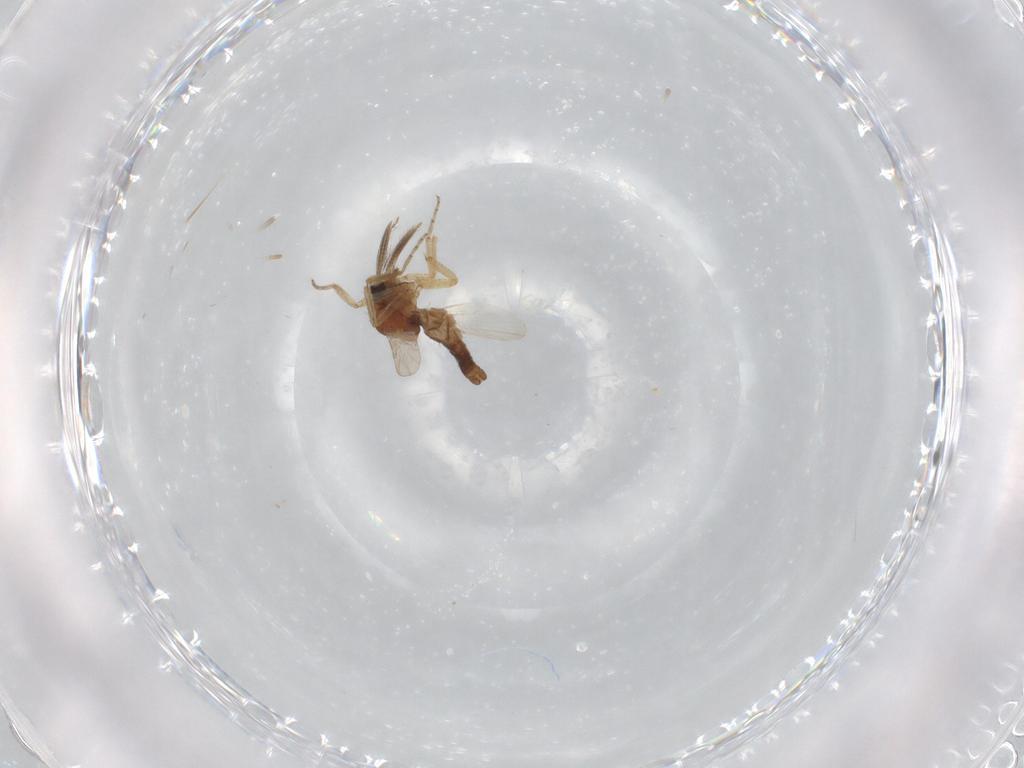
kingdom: Animalia
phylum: Arthropoda
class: Insecta
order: Diptera
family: Ceratopogonidae
